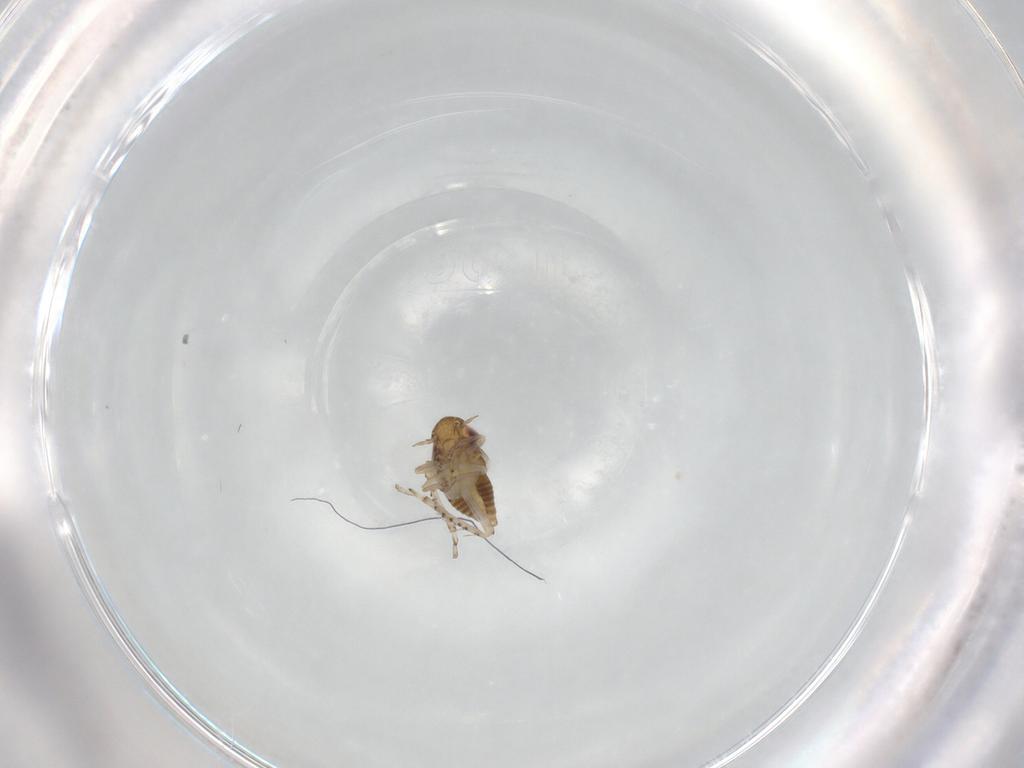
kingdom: Animalia
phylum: Arthropoda
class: Insecta
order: Hemiptera
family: Cicadellidae
